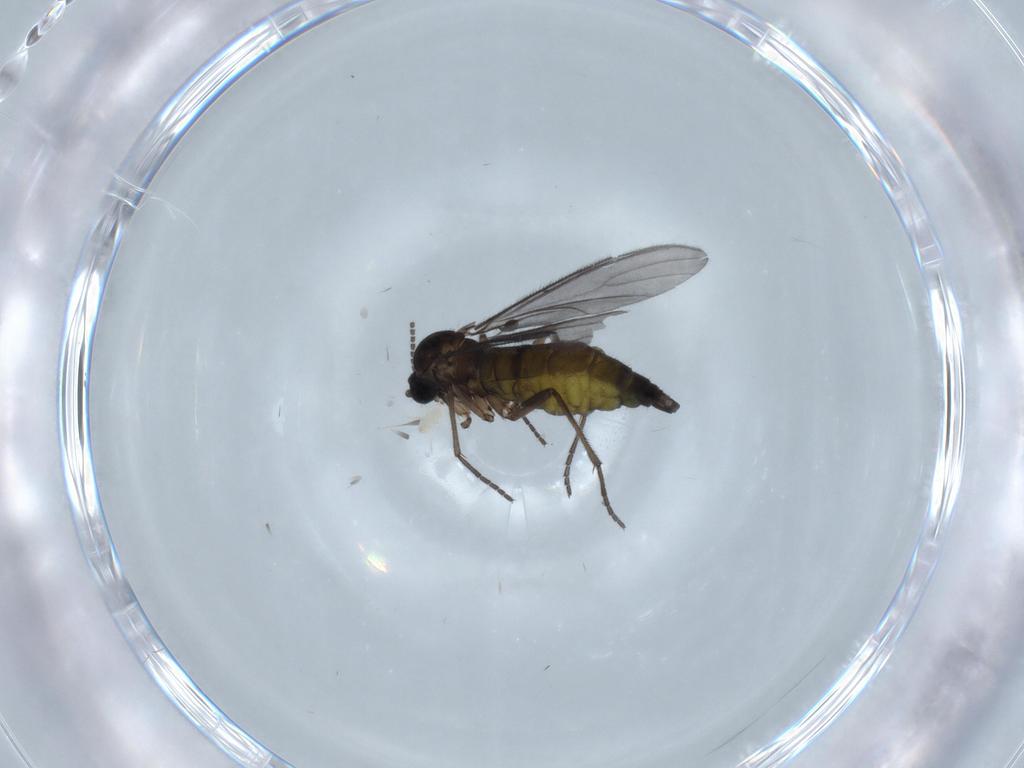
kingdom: Animalia
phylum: Arthropoda
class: Insecta
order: Diptera
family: Sciaridae
